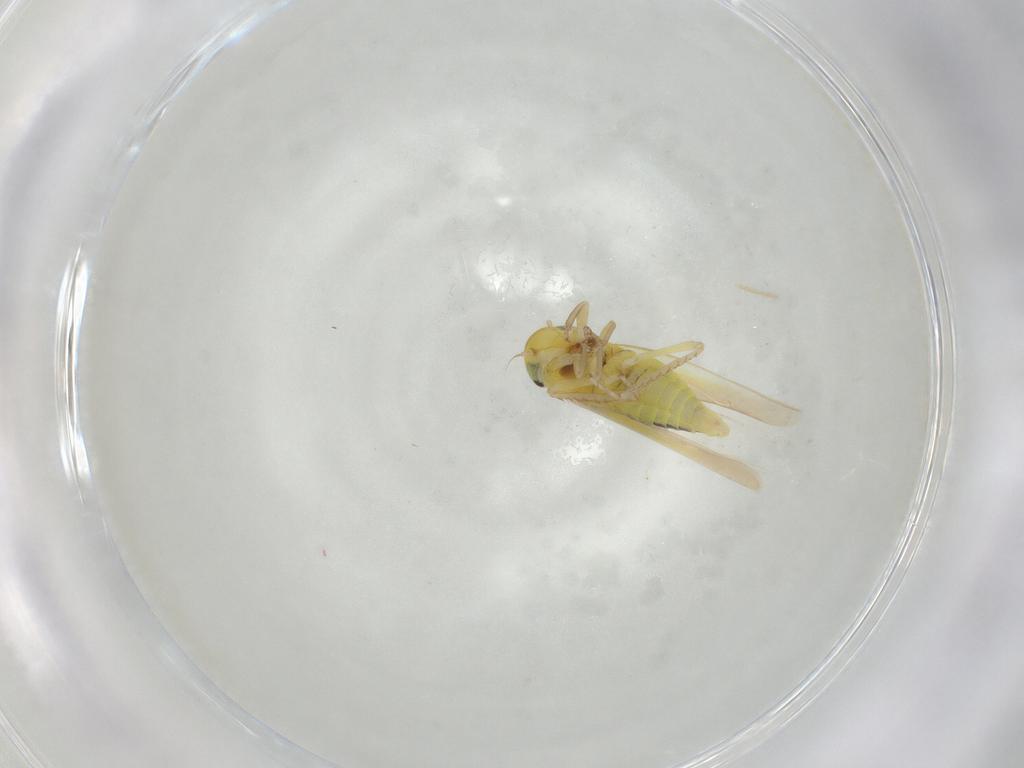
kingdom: Animalia
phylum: Arthropoda
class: Insecta
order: Hemiptera
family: Cicadellidae
